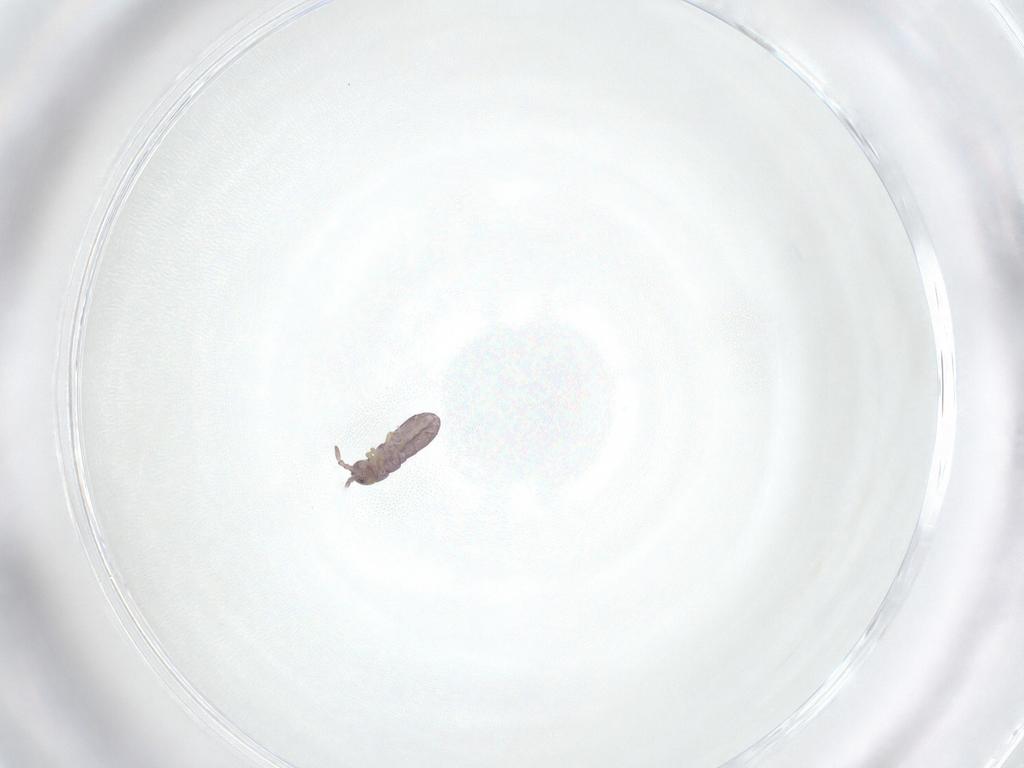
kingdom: Animalia
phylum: Arthropoda
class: Collembola
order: Entomobryomorpha
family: Isotomidae
